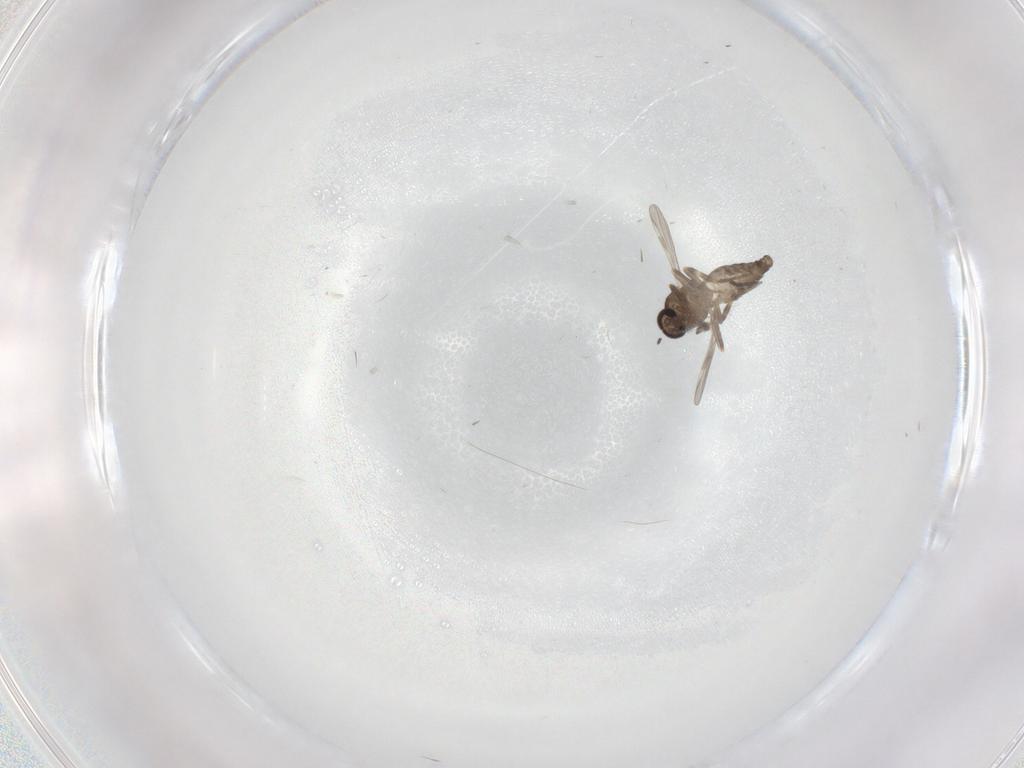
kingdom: Animalia
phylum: Arthropoda
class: Insecta
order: Diptera
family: Ceratopogonidae
